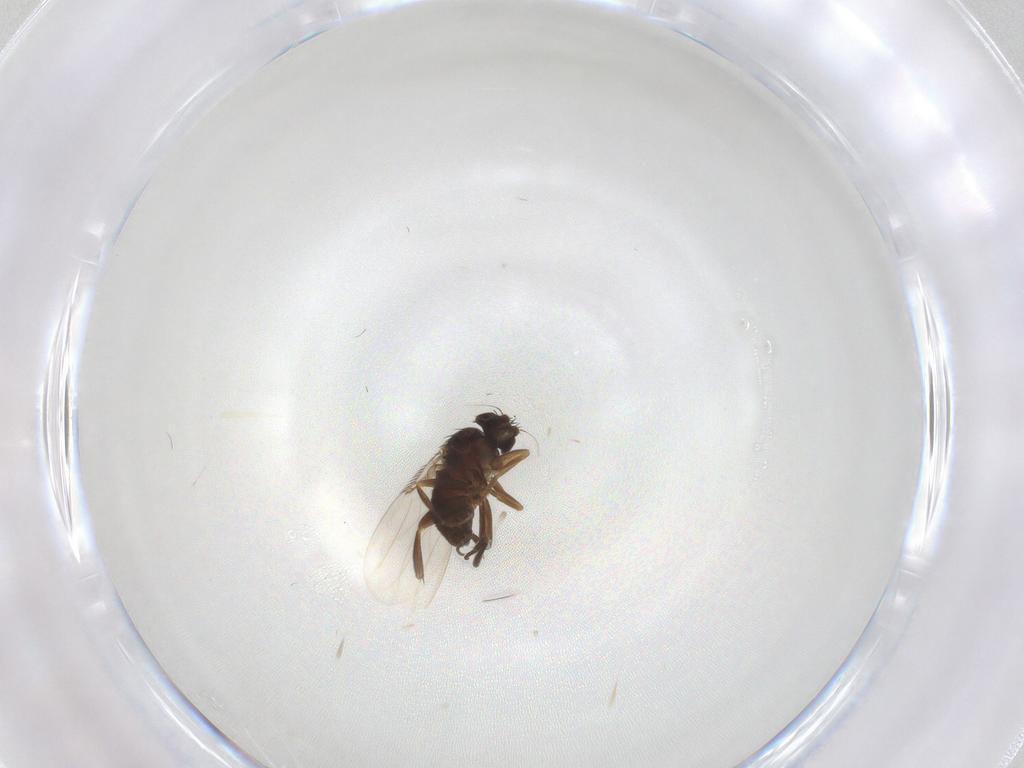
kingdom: Animalia
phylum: Arthropoda
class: Insecta
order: Diptera
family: Phoridae
